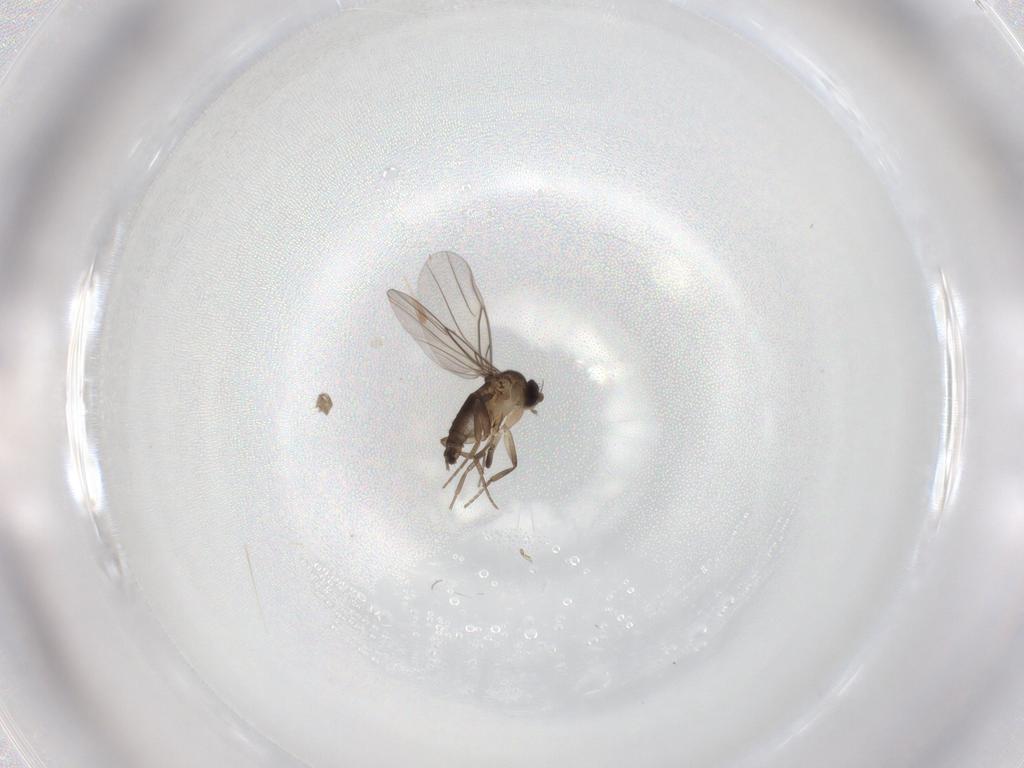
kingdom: Animalia
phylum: Arthropoda
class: Insecta
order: Diptera
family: Phoridae
